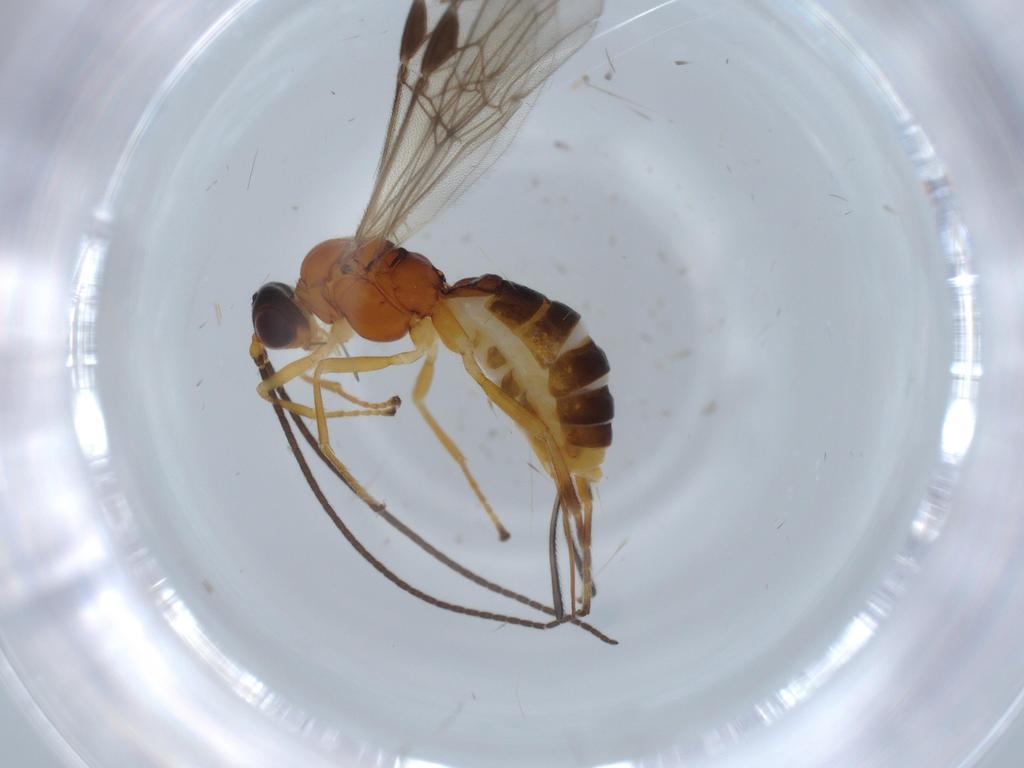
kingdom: Animalia
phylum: Arthropoda
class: Insecta
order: Hymenoptera
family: Braconidae
